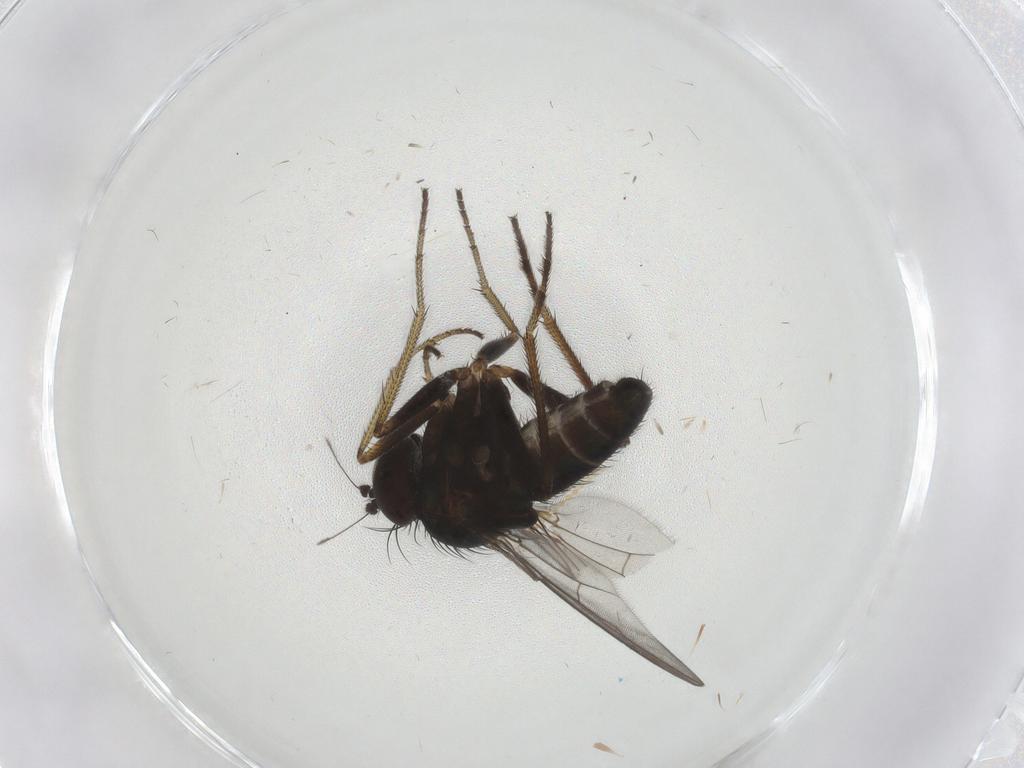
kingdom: Animalia
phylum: Arthropoda
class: Insecta
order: Diptera
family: Sciaridae
